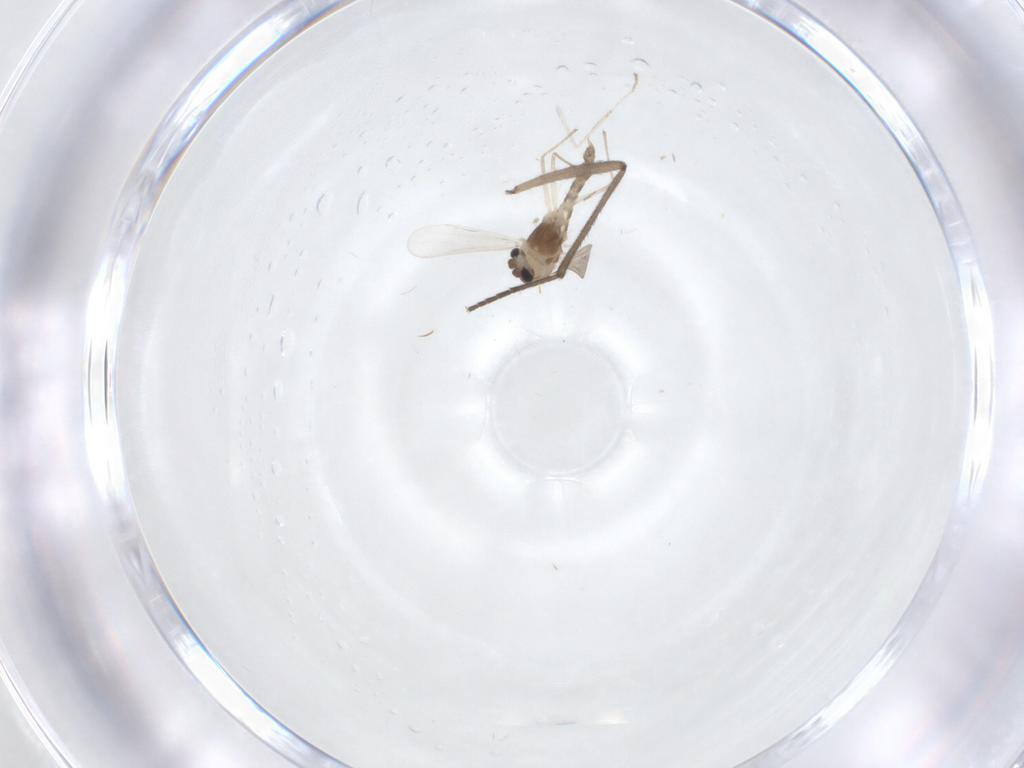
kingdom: Animalia
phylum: Arthropoda
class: Insecta
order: Diptera
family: Chironomidae
